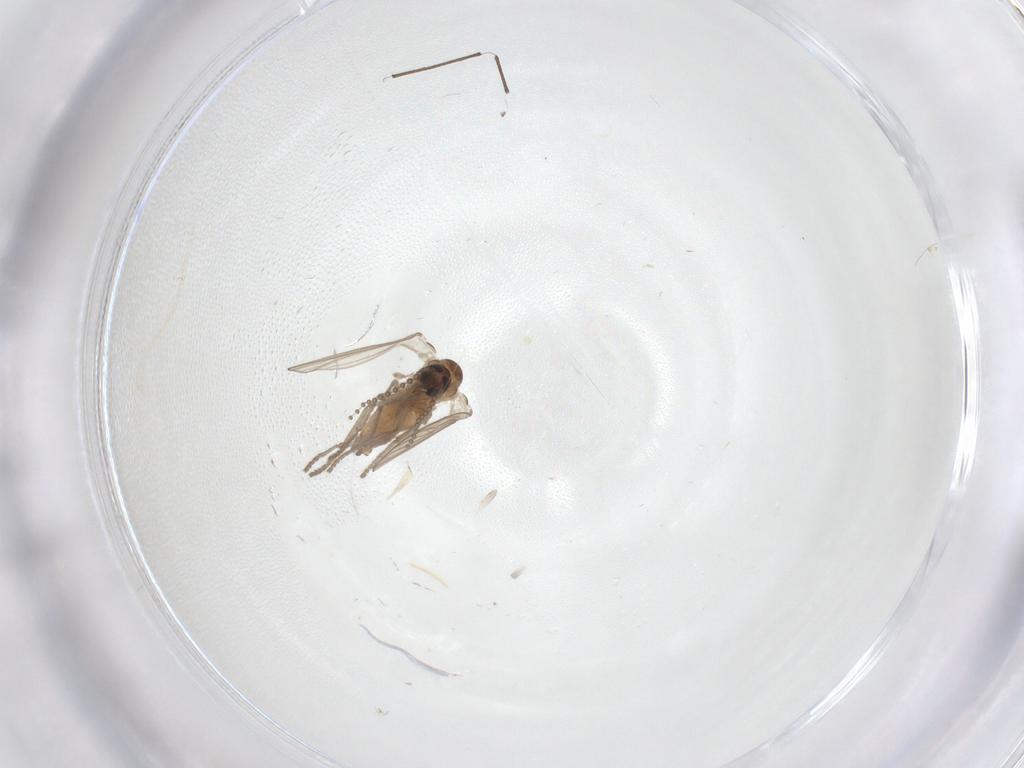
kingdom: Animalia
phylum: Arthropoda
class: Insecta
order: Diptera
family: Psychodidae
